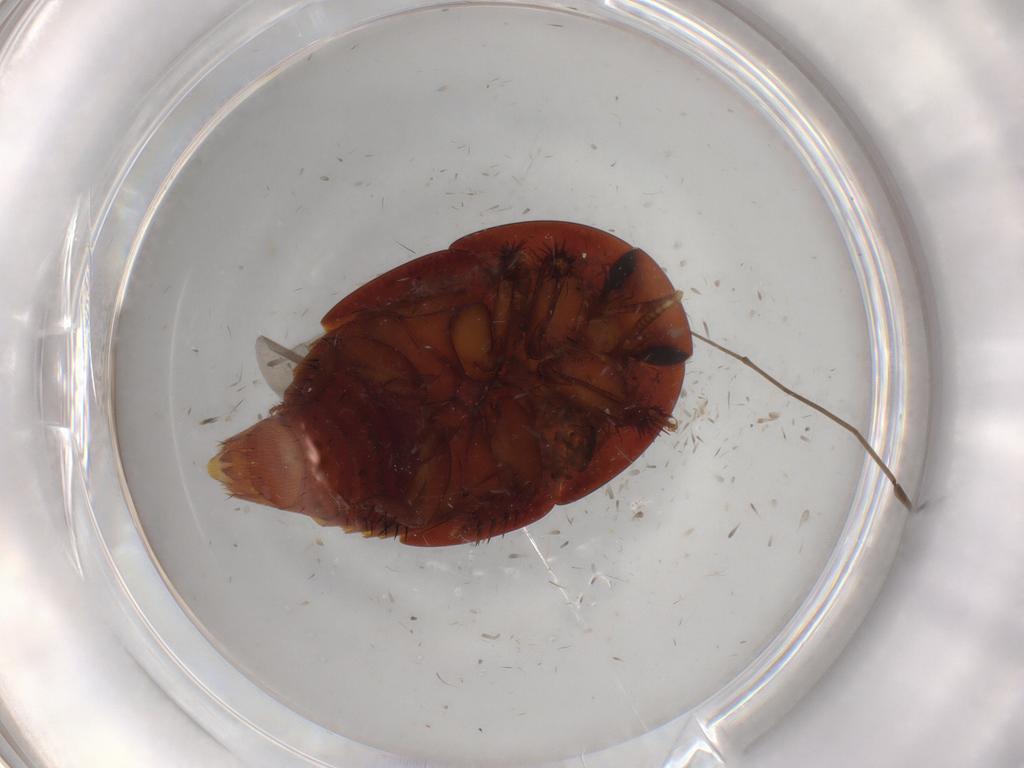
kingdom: Animalia
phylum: Arthropoda
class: Insecta
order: Coleoptera
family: Staphylinidae
